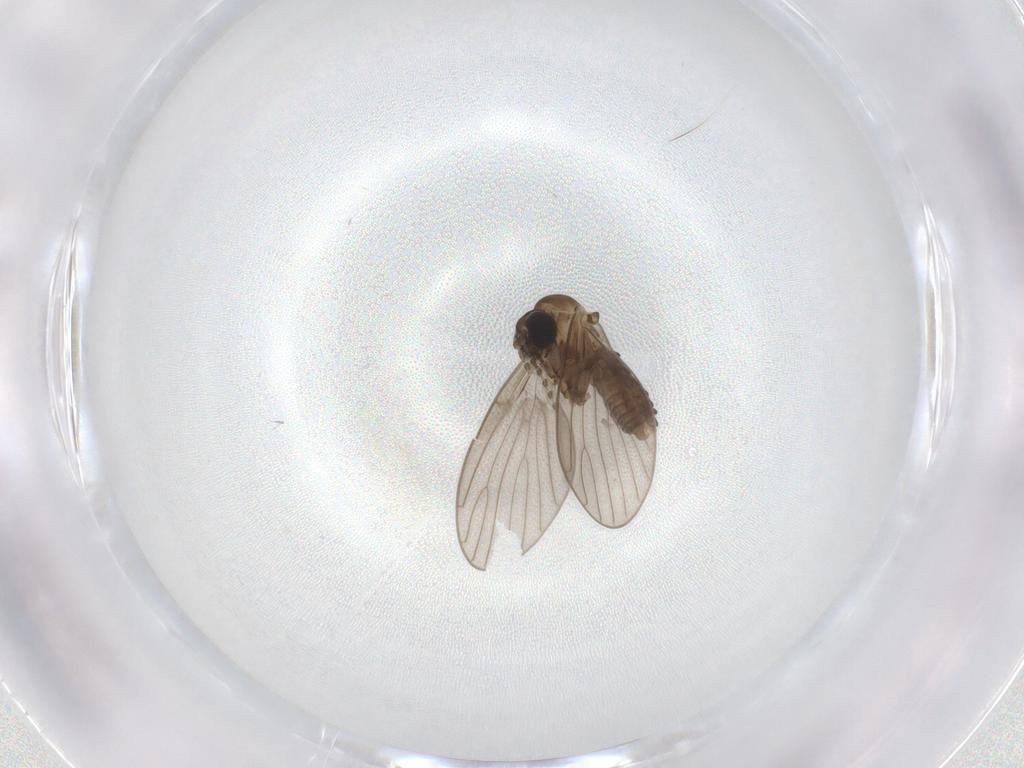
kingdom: Animalia
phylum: Arthropoda
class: Insecta
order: Diptera
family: Psychodidae
